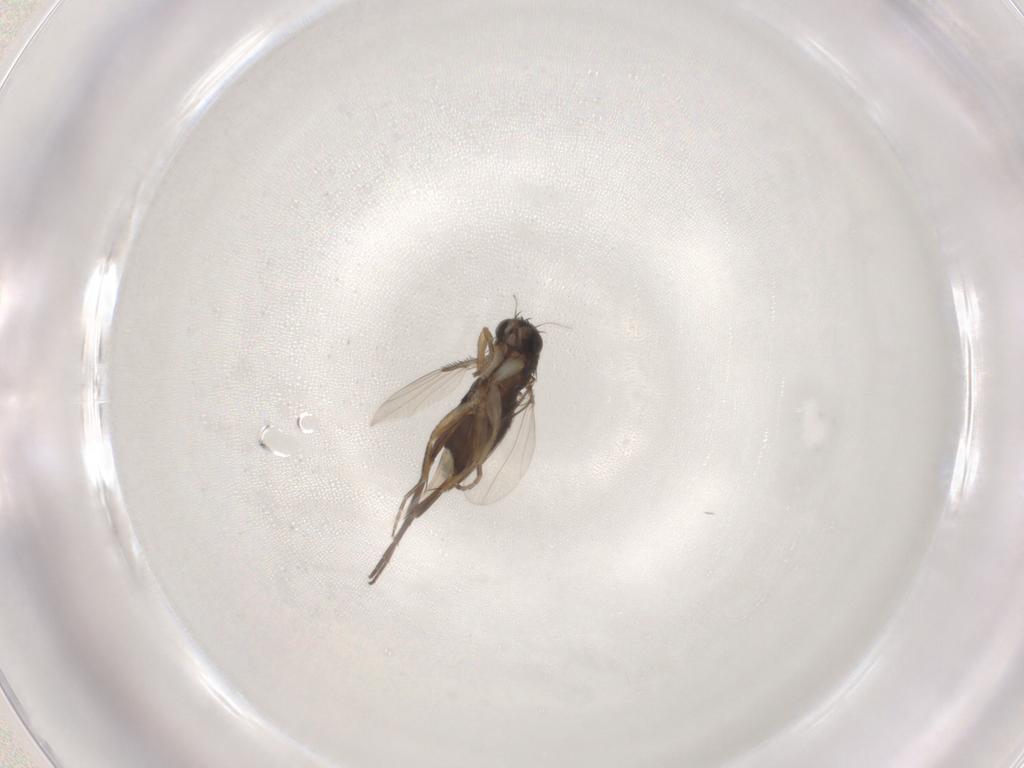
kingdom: Animalia
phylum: Arthropoda
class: Insecta
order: Diptera
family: Phoridae
